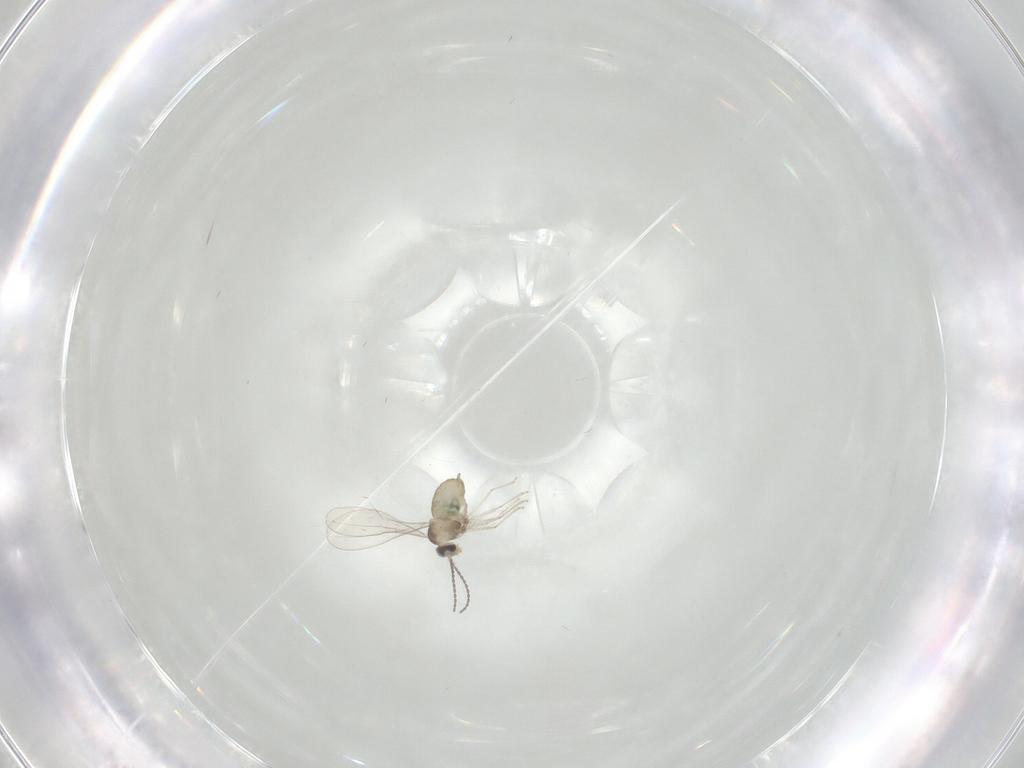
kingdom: Animalia
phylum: Arthropoda
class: Insecta
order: Diptera
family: Cecidomyiidae
